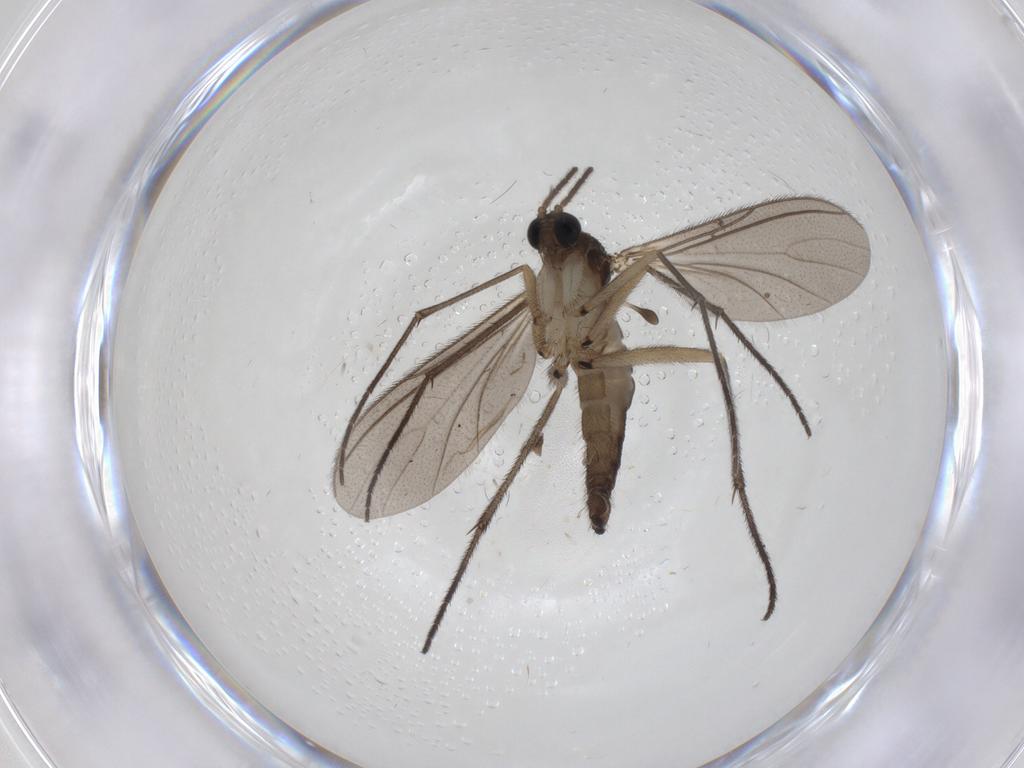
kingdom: Animalia
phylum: Arthropoda
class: Insecta
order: Diptera
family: Sciaridae
